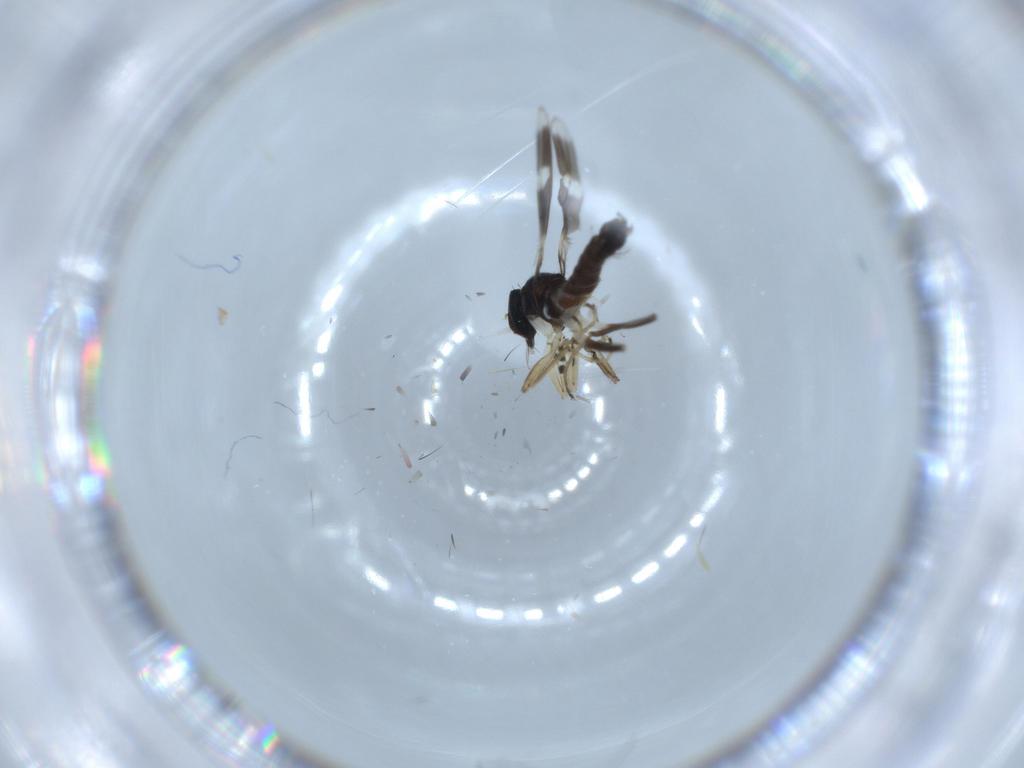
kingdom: Animalia
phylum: Arthropoda
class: Insecta
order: Diptera
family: Hybotidae
